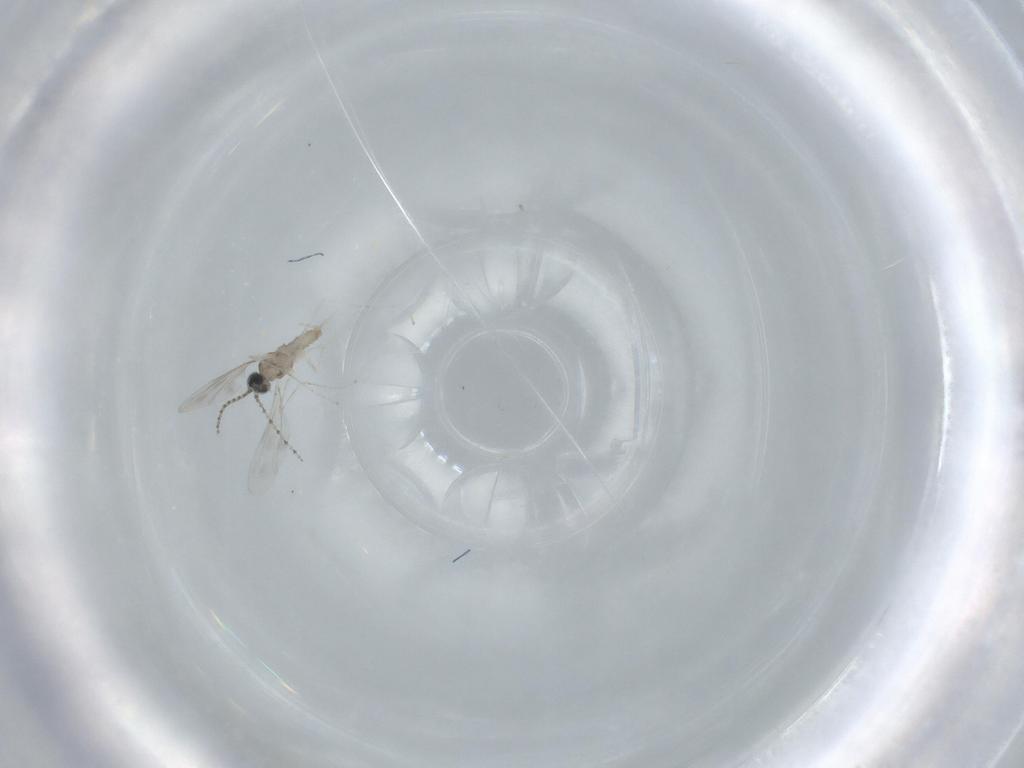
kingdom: Animalia
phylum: Arthropoda
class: Insecta
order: Diptera
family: Cecidomyiidae
